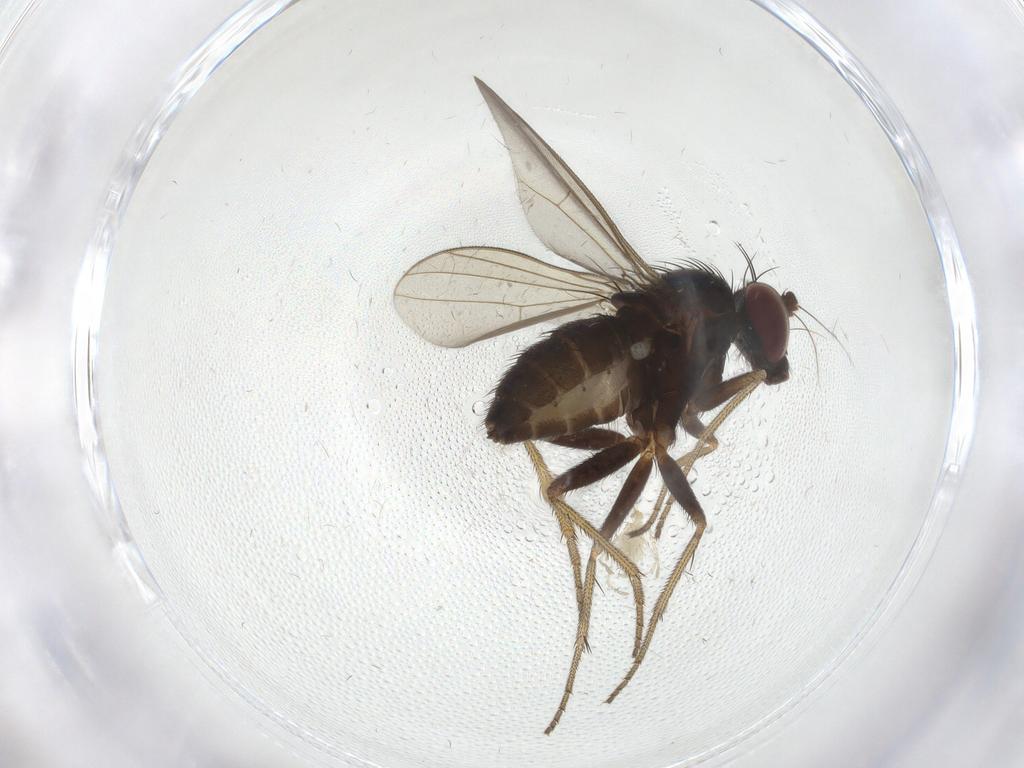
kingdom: Animalia
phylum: Arthropoda
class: Insecta
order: Diptera
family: Dolichopodidae
